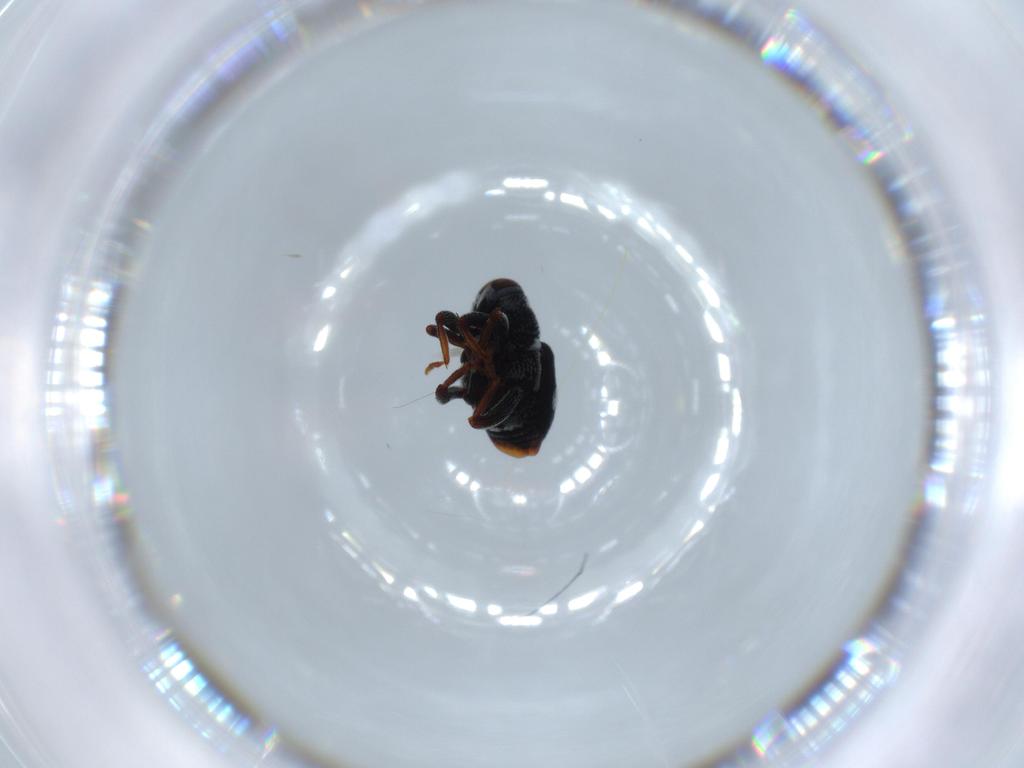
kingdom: Animalia
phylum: Arthropoda
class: Insecta
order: Coleoptera
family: Curculionidae
